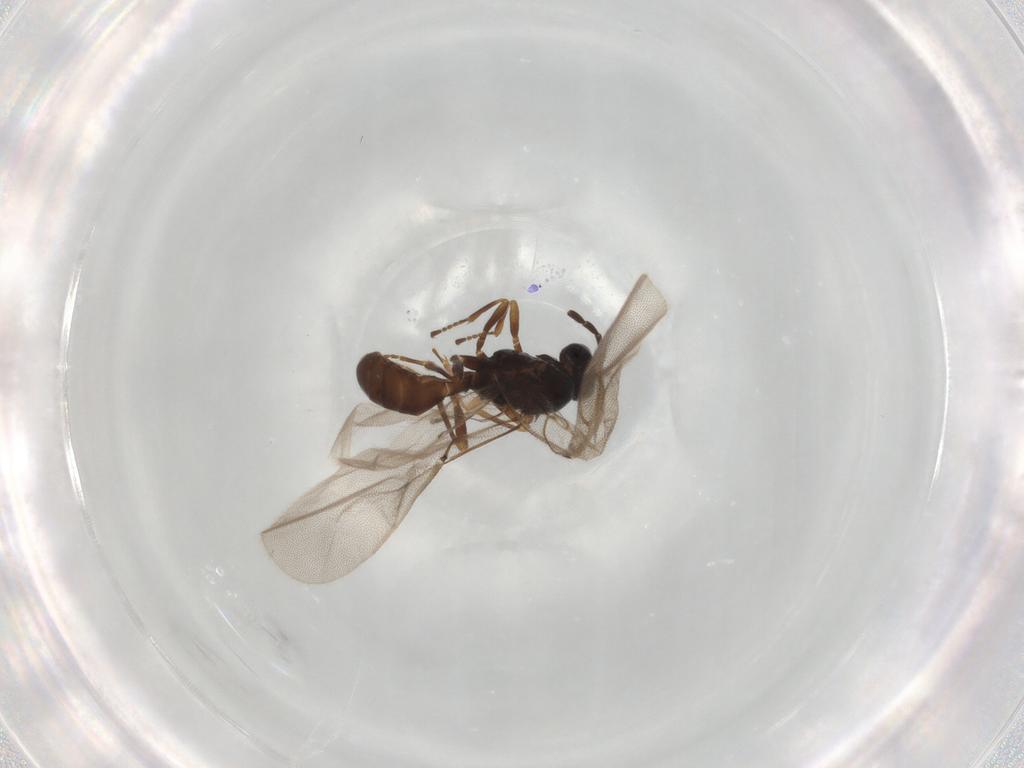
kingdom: Animalia
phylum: Arthropoda
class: Insecta
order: Hymenoptera
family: Braconidae
